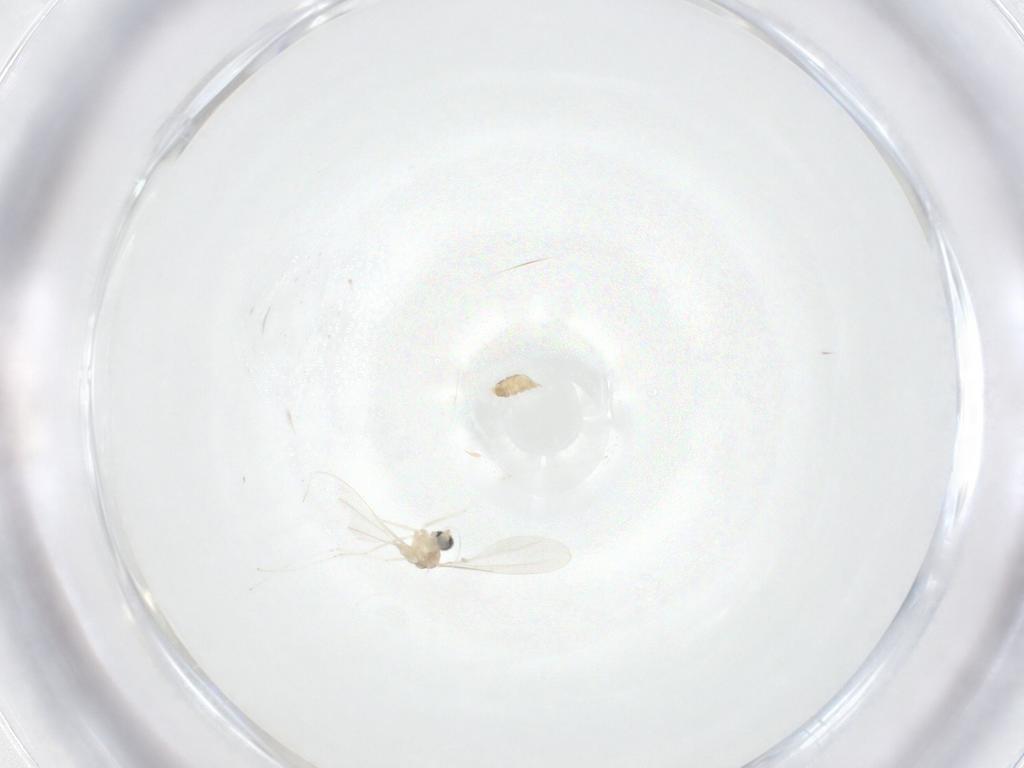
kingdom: Animalia
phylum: Arthropoda
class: Insecta
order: Diptera
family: Cecidomyiidae
